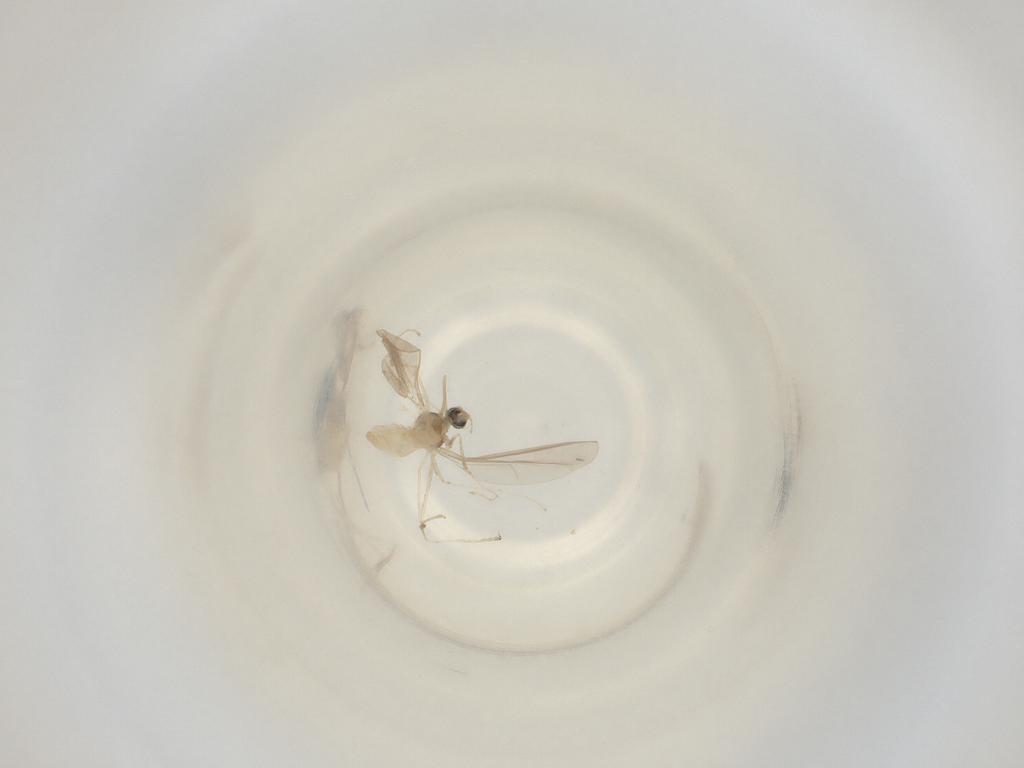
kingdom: Animalia
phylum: Arthropoda
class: Insecta
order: Diptera
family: Cecidomyiidae
